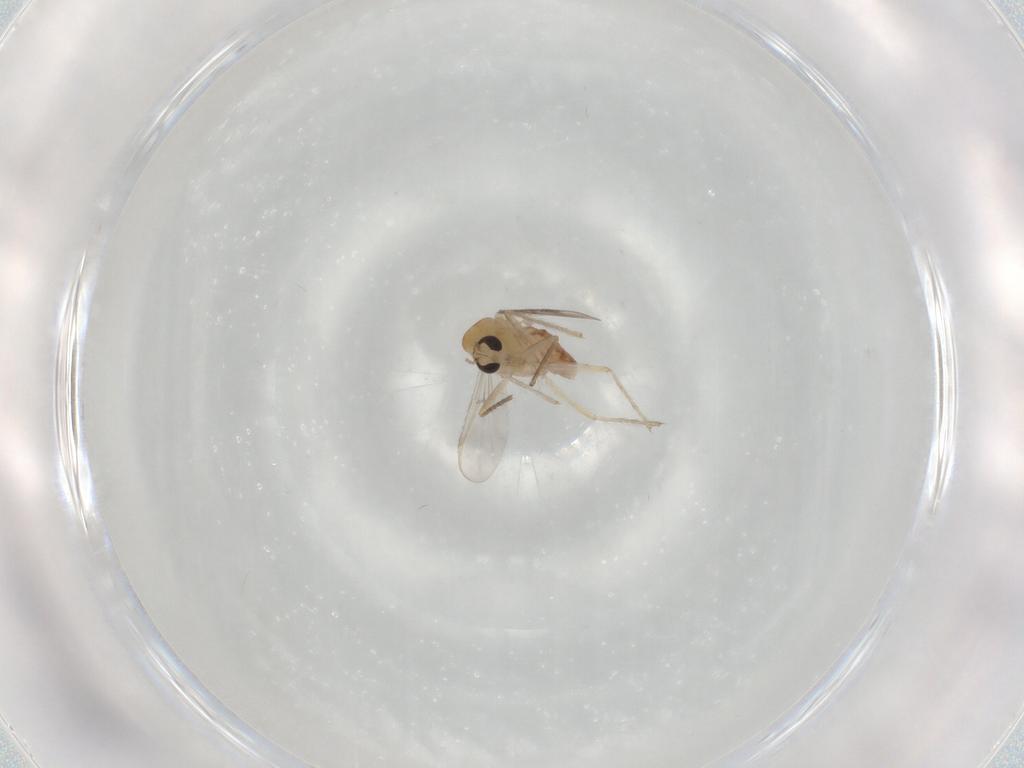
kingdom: Animalia
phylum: Arthropoda
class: Insecta
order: Diptera
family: Chironomidae
